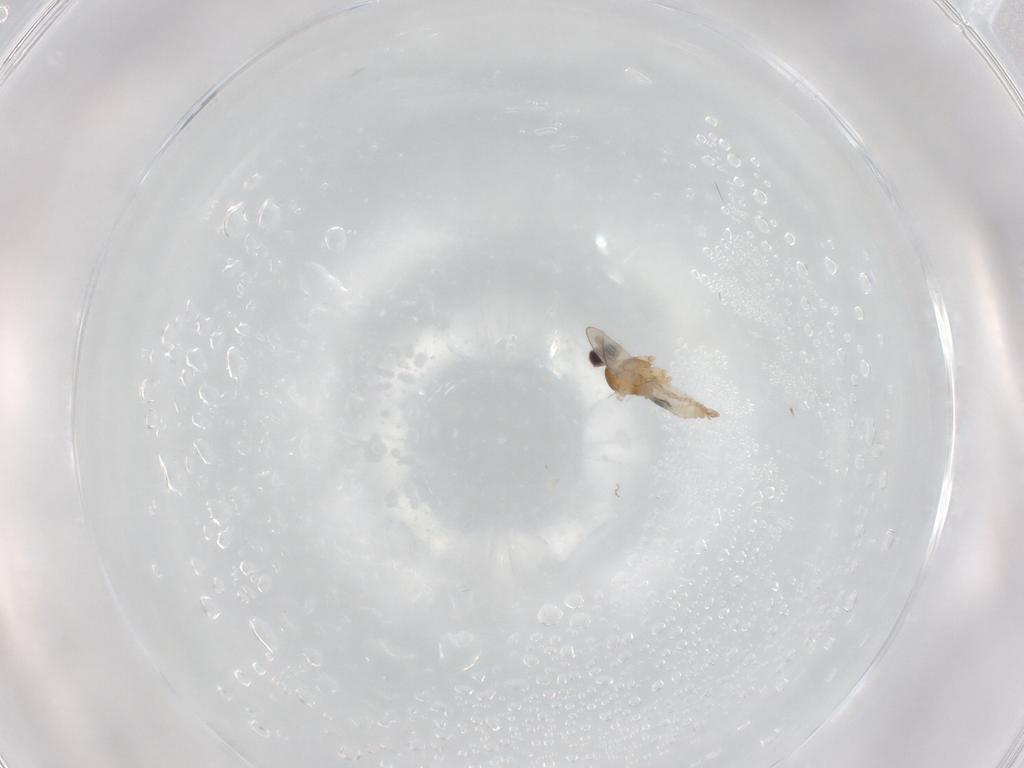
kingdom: Animalia
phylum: Arthropoda
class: Insecta
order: Diptera
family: Cecidomyiidae
